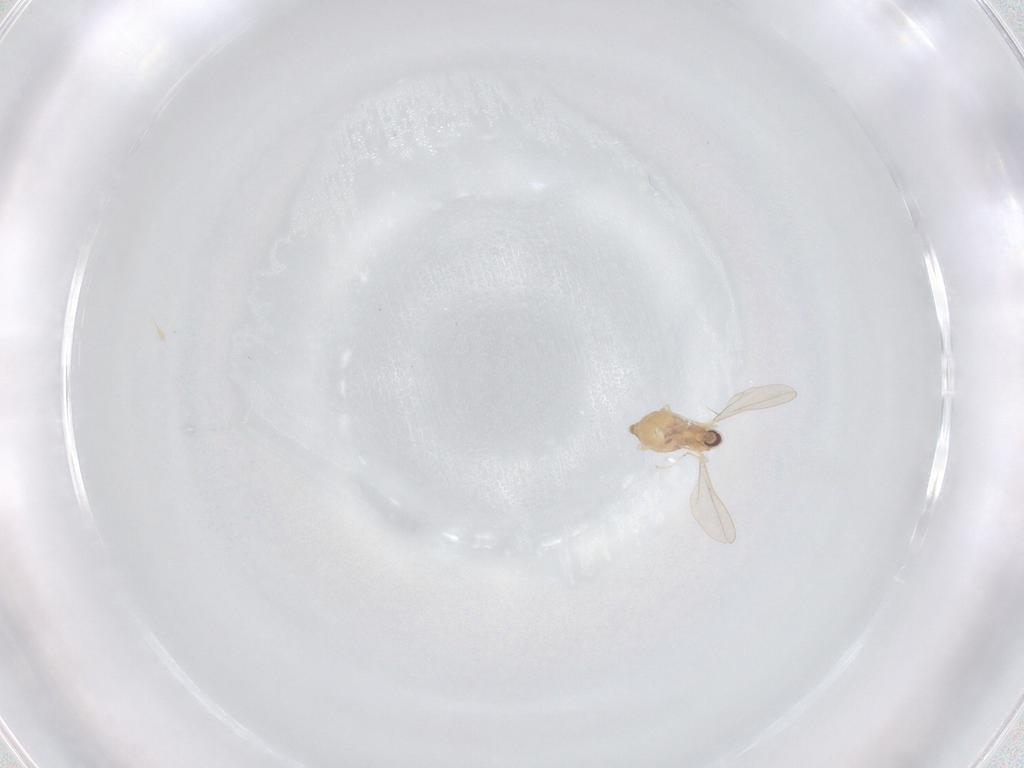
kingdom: Animalia
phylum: Arthropoda
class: Insecta
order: Diptera
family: Cecidomyiidae
